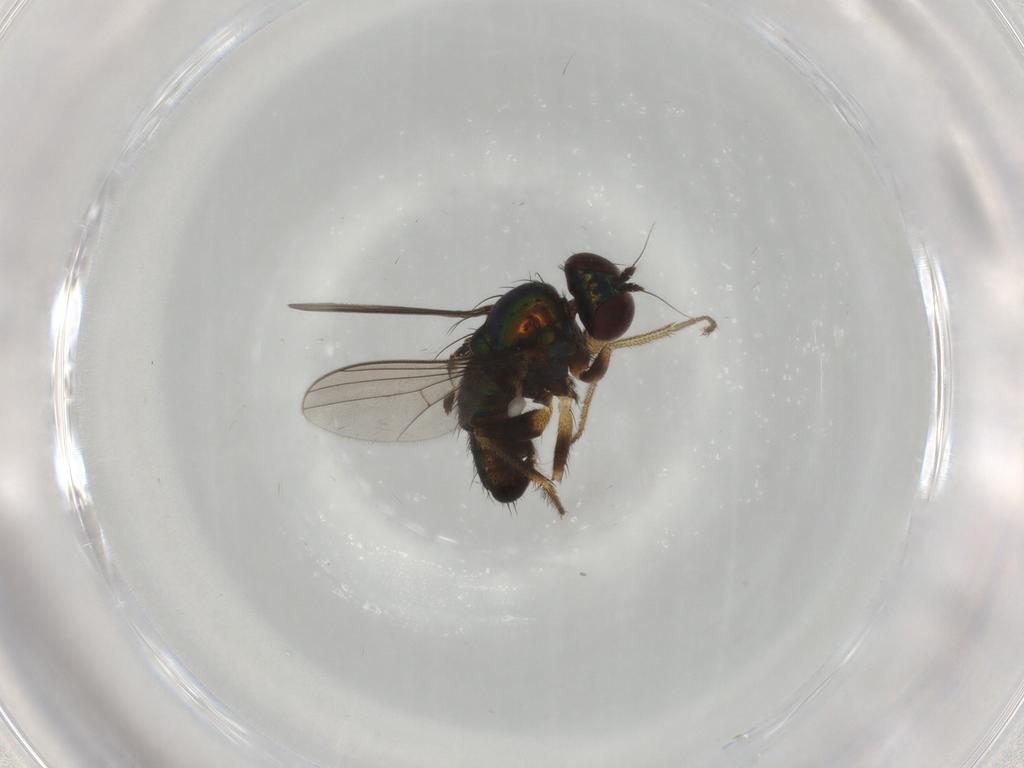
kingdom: Animalia
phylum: Arthropoda
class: Insecta
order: Diptera
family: Dolichopodidae
